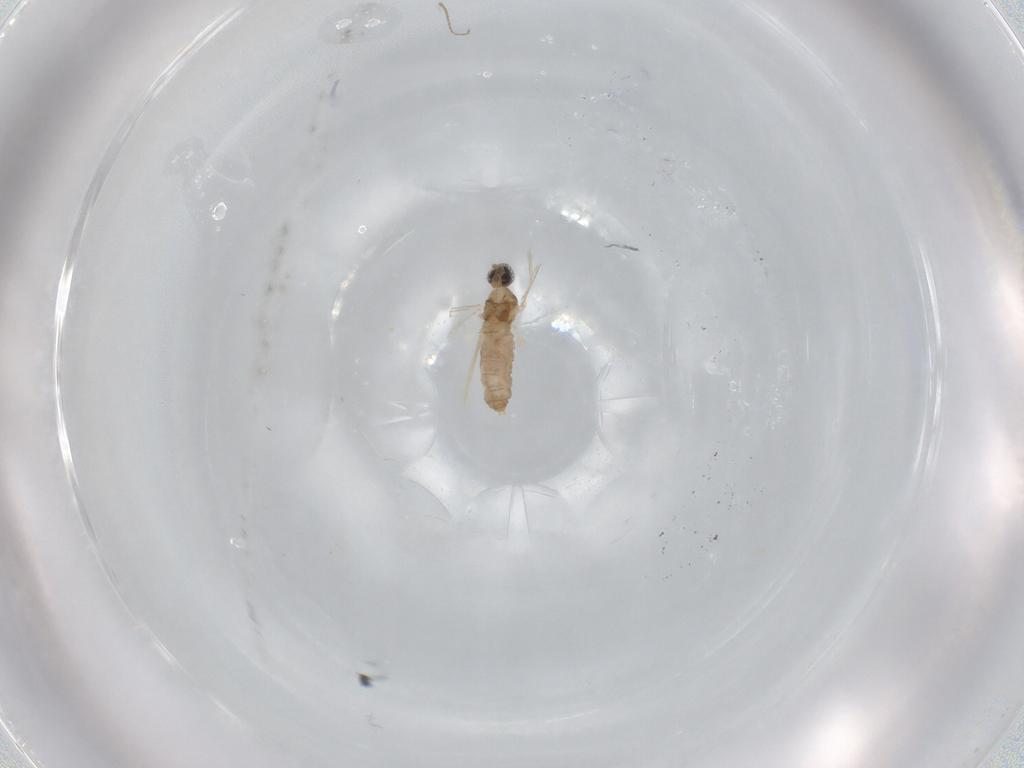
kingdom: Animalia
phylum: Arthropoda
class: Insecta
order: Diptera
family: Cecidomyiidae
